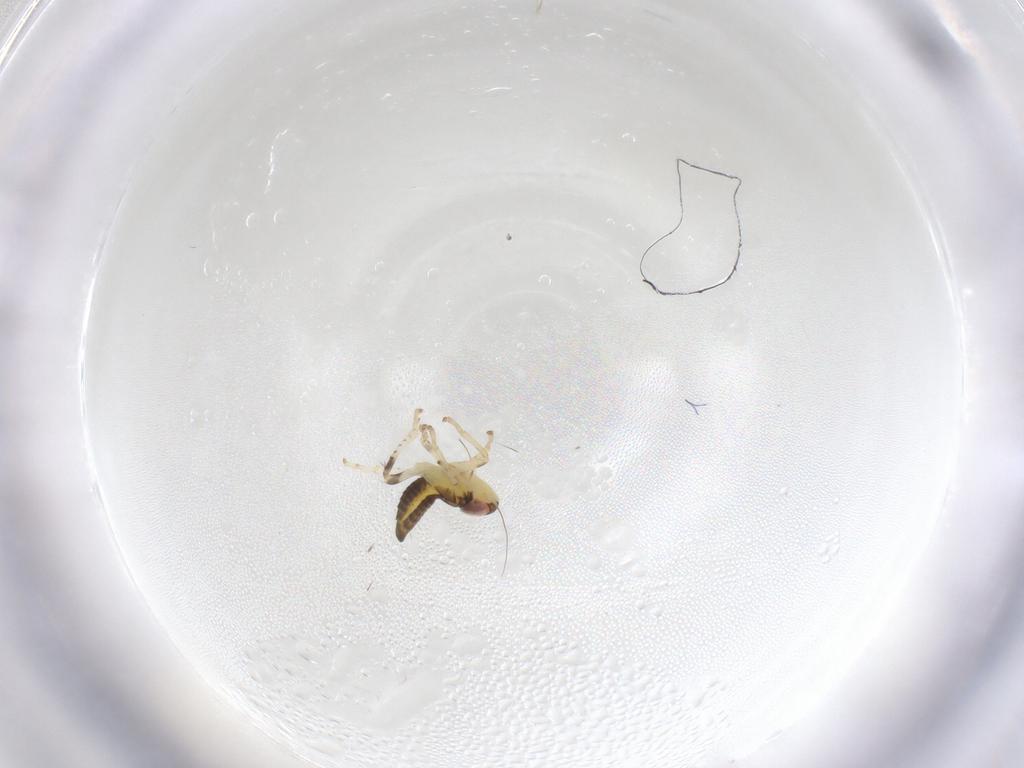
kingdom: Animalia
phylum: Arthropoda
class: Insecta
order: Hemiptera
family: Cicadellidae
